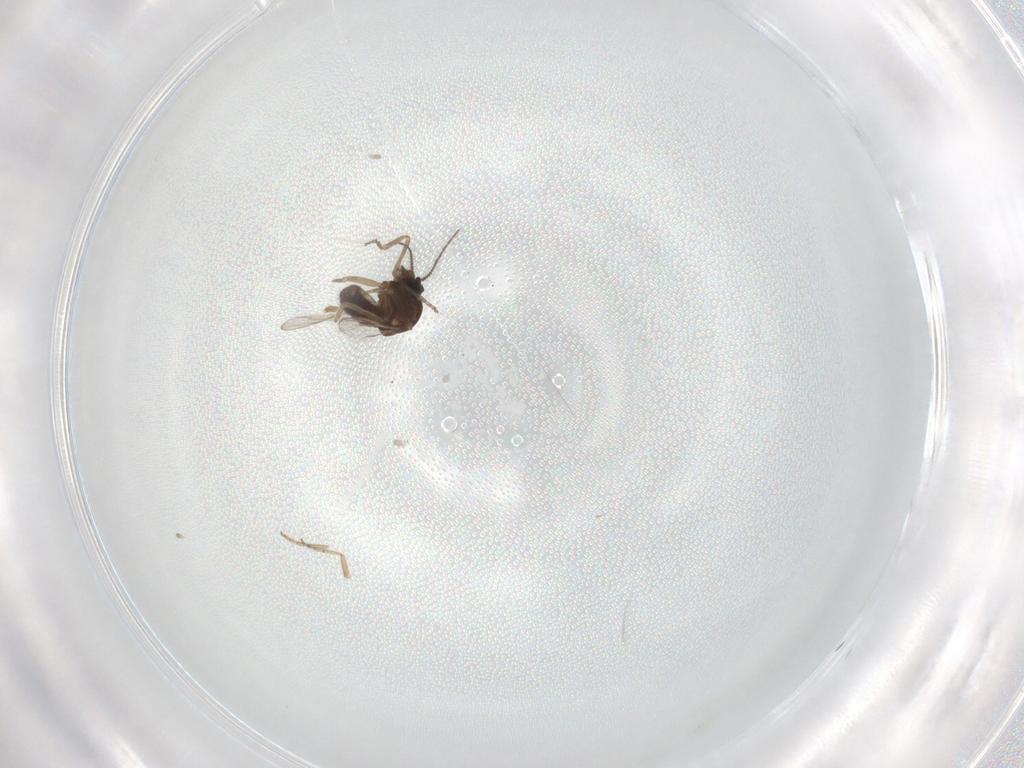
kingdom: Animalia
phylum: Arthropoda
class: Insecta
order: Diptera
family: Ceratopogonidae
